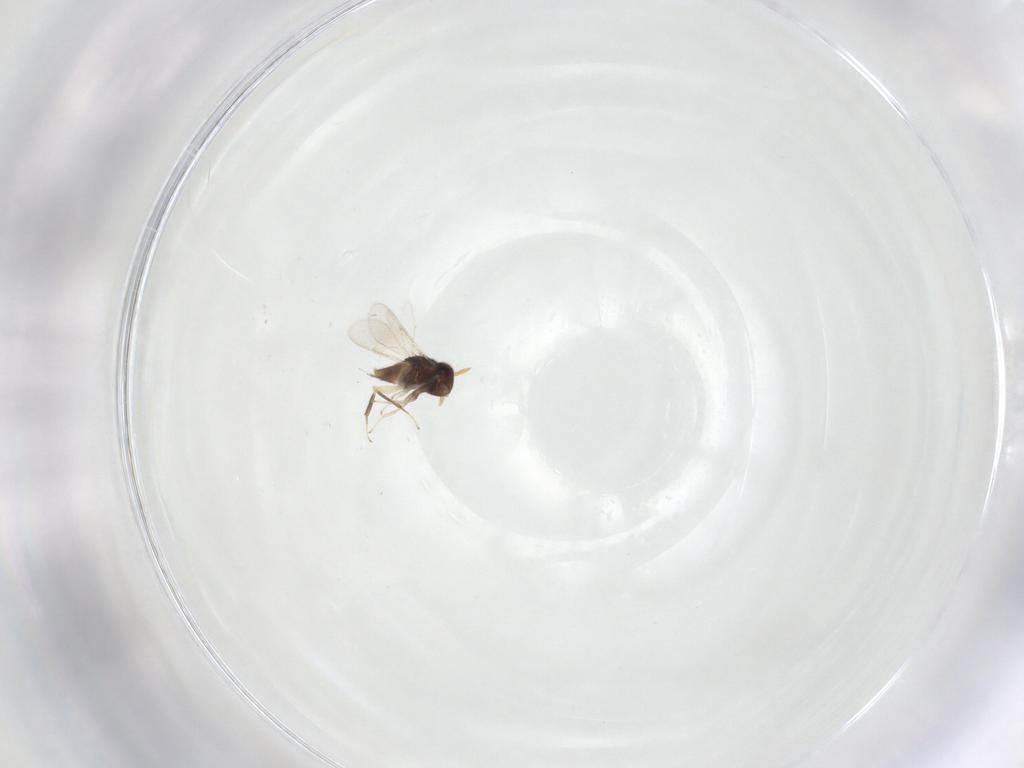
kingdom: Animalia
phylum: Arthropoda
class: Insecta
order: Hymenoptera
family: Aphelinidae
